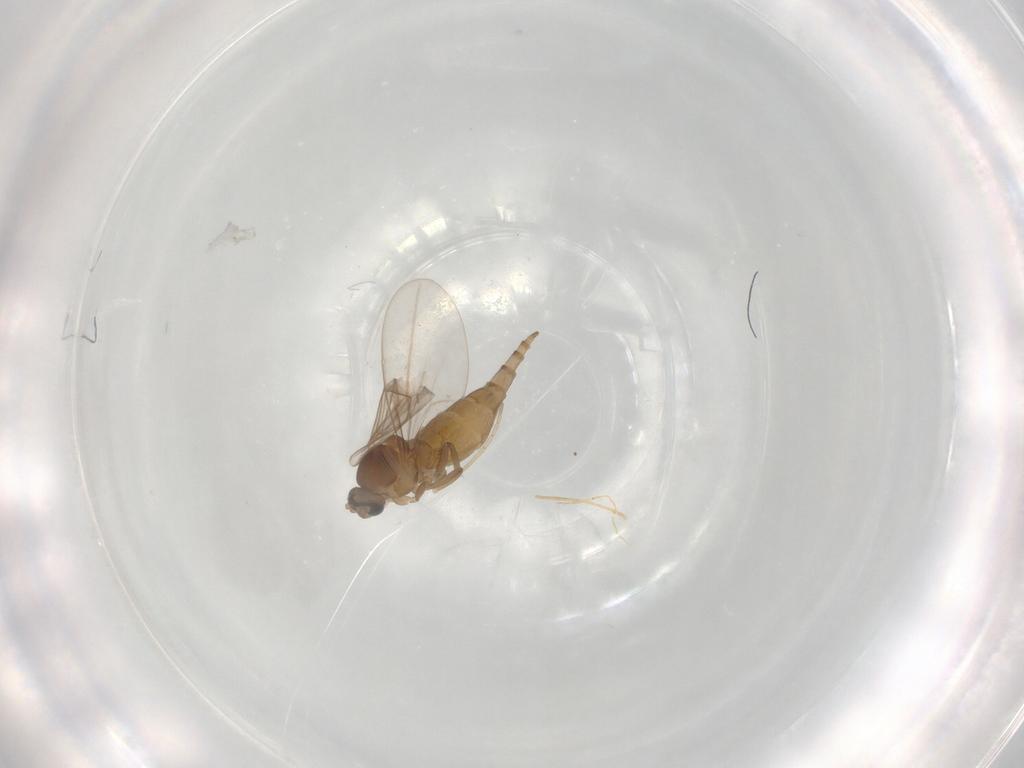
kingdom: Animalia
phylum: Arthropoda
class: Insecta
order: Diptera
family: Cecidomyiidae
